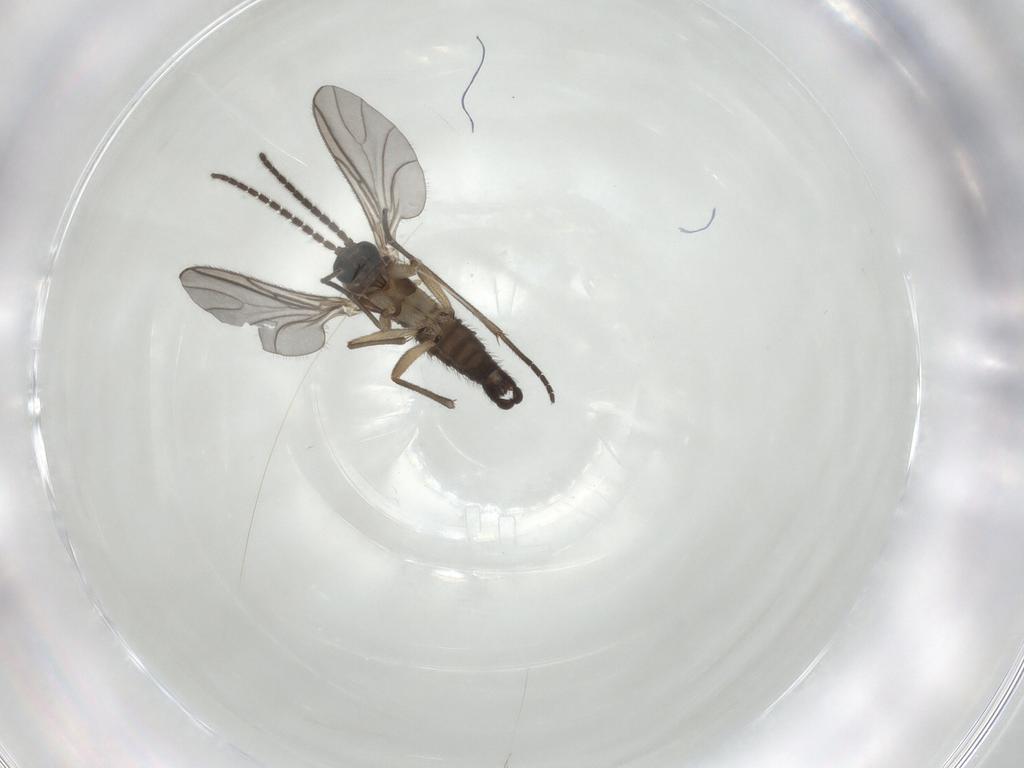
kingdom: Animalia
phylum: Arthropoda
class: Insecta
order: Diptera
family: Sciaridae
